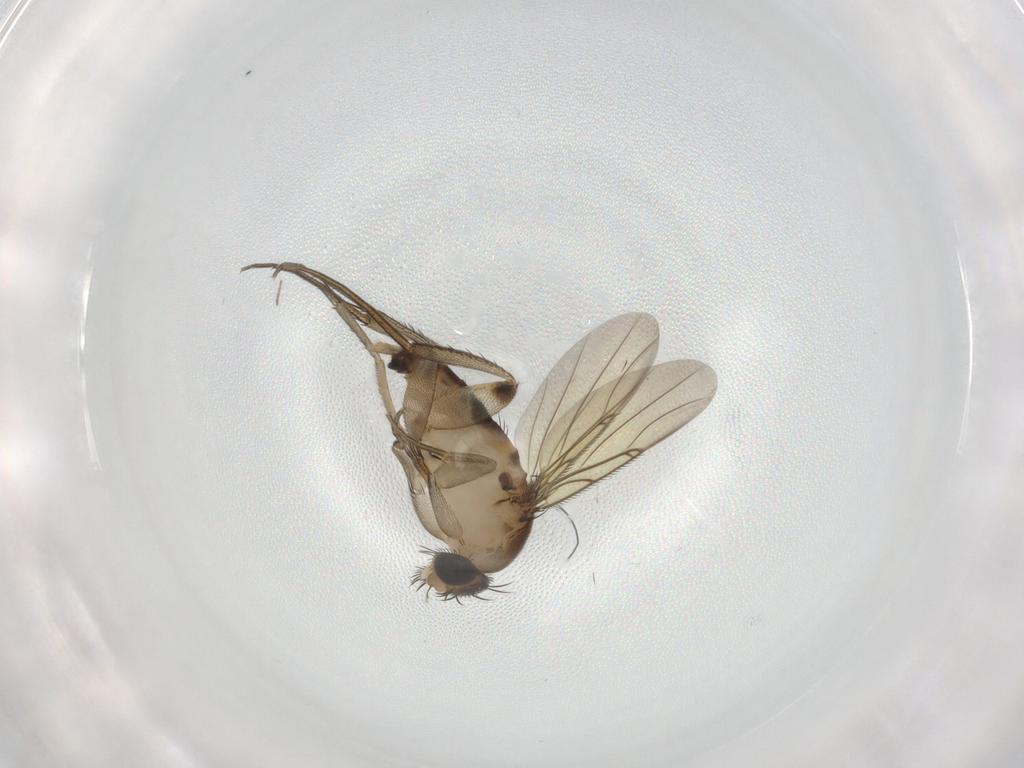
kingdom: Animalia
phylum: Arthropoda
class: Insecta
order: Diptera
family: Phoridae
